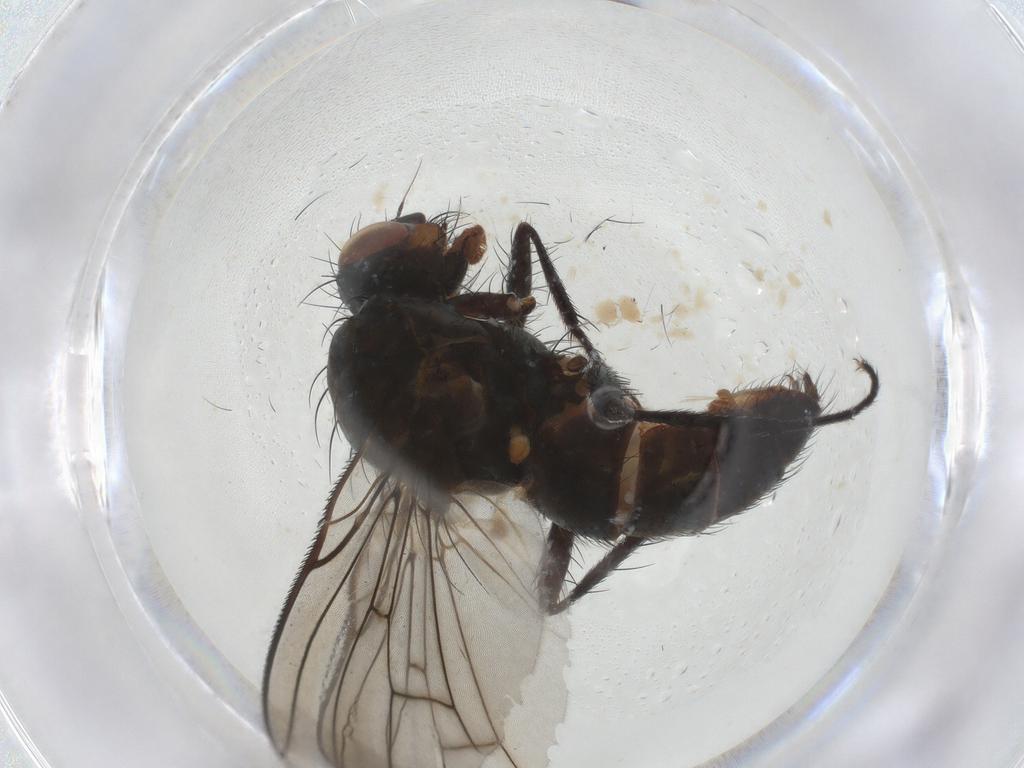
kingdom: Animalia
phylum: Arthropoda
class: Insecta
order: Diptera
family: Anthomyiidae
